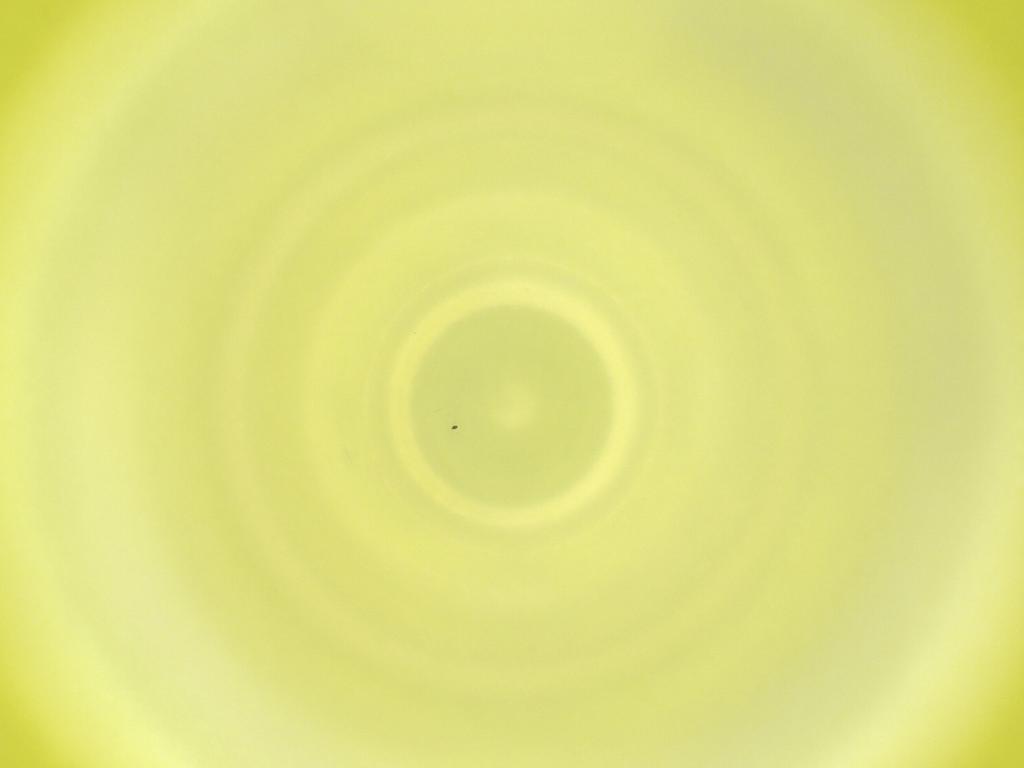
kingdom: Animalia
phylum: Arthropoda
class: Insecta
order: Diptera
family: Cecidomyiidae
